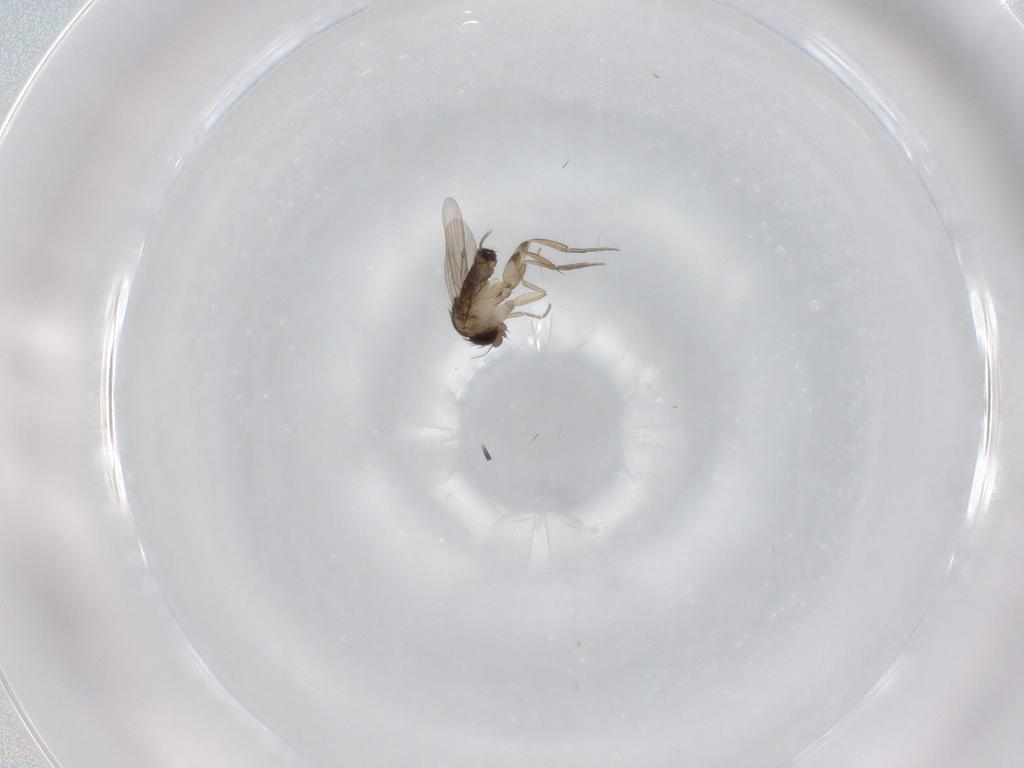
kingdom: Animalia
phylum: Arthropoda
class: Insecta
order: Diptera
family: Phoridae
